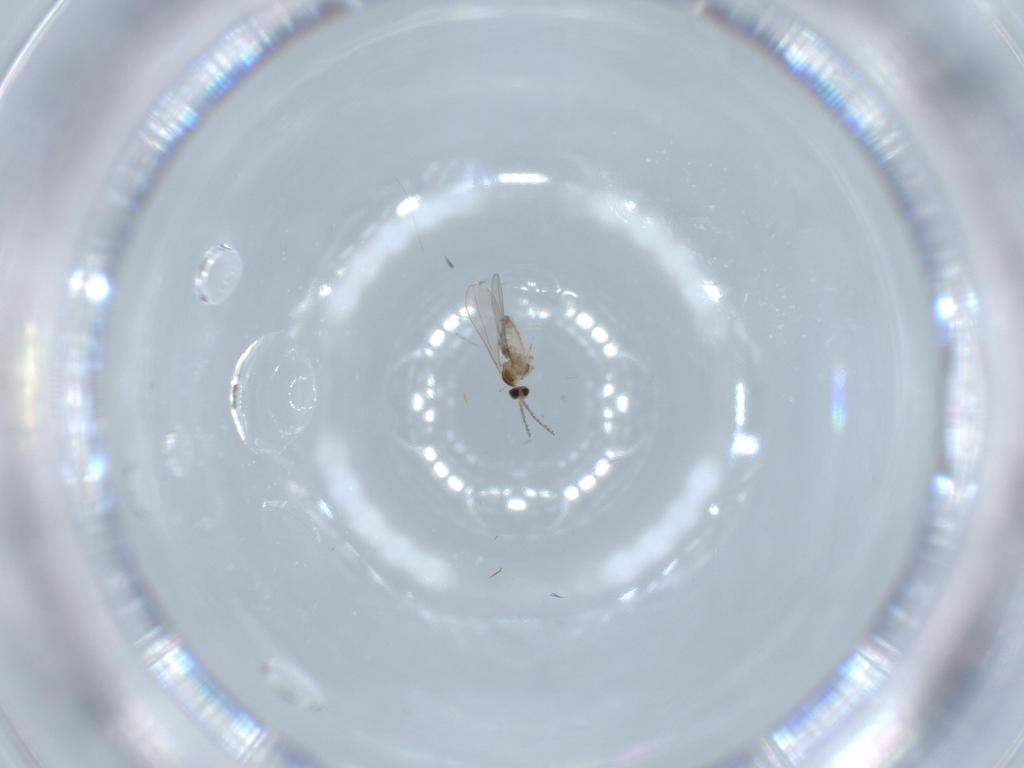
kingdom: Animalia
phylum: Arthropoda
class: Insecta
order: Diptera
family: Cecidomyiidae
